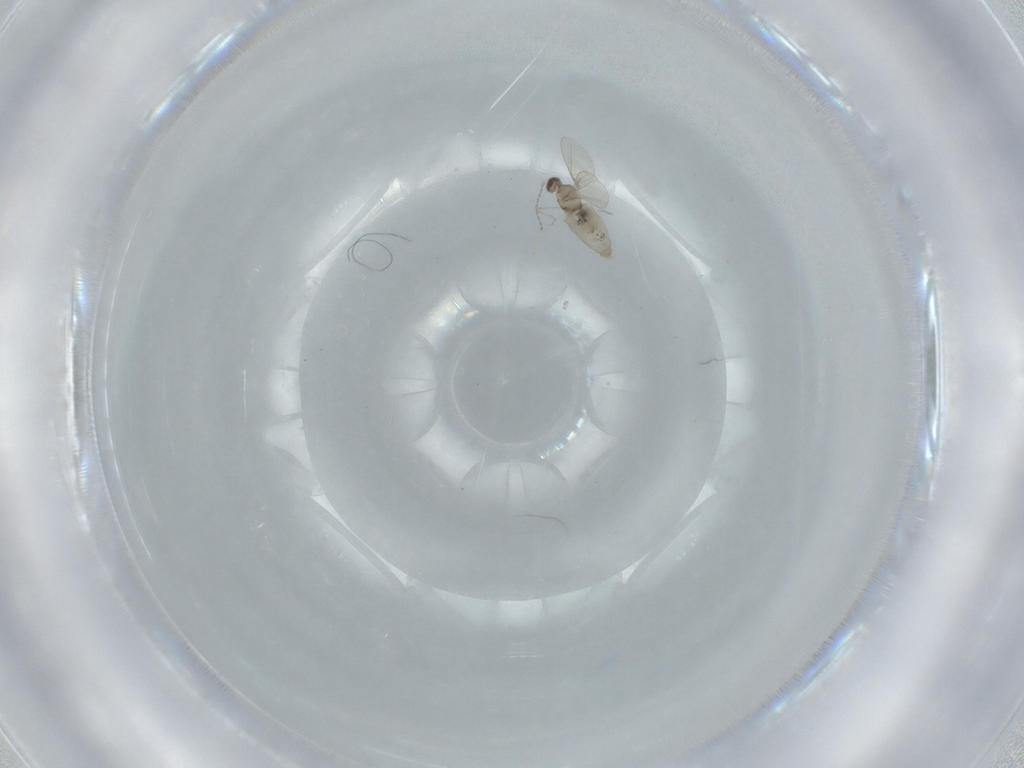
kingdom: Animalia
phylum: Arthropoda
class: Insecta
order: Diptera
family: Cecidomyiidae
